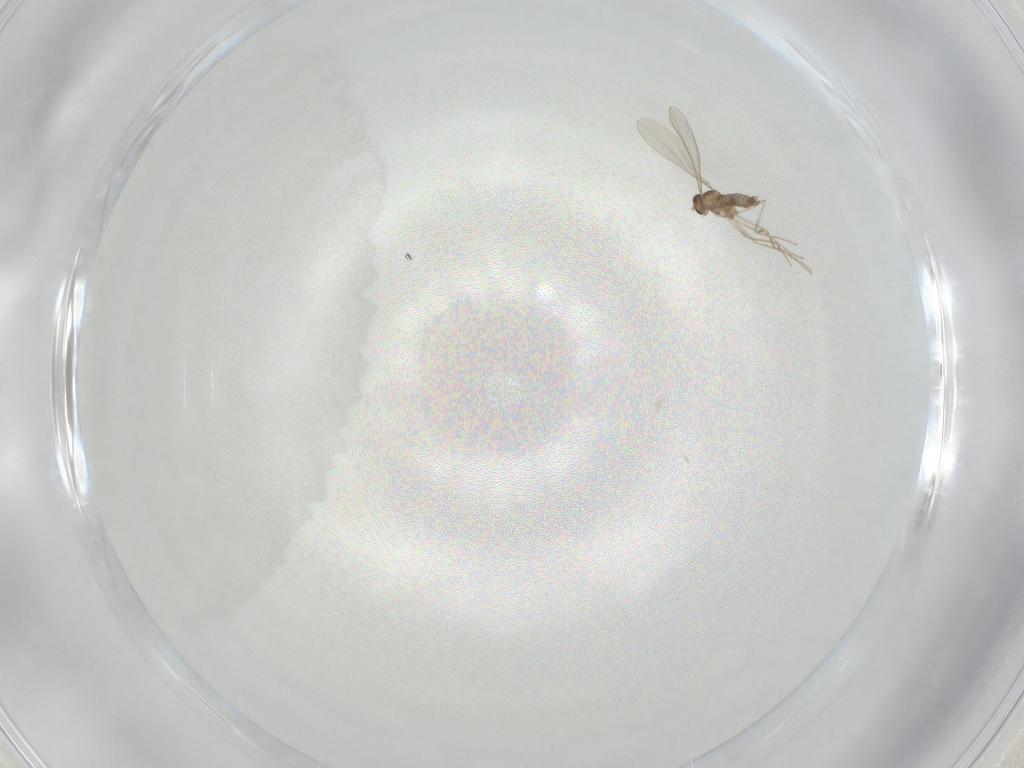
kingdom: Animalia
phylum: Arthropoda
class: Insecta
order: Diptera
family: Cecidomyiidae
